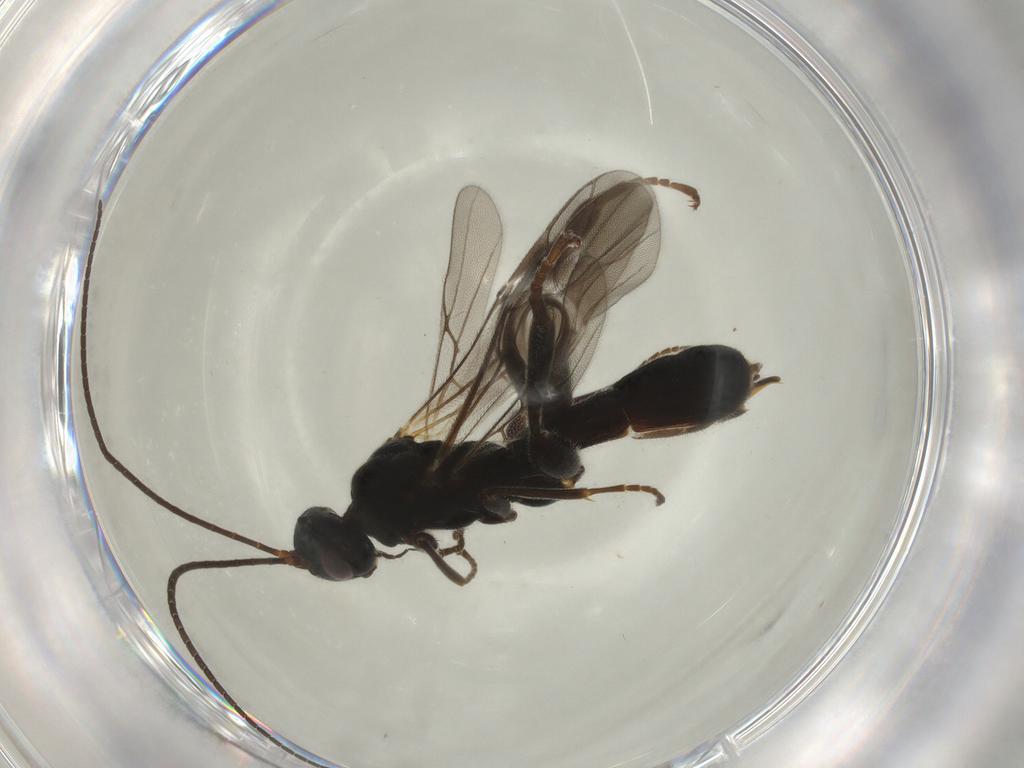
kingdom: Animalia
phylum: Arthropoda
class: Insecta
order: Hymenoptera
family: Braconidae
